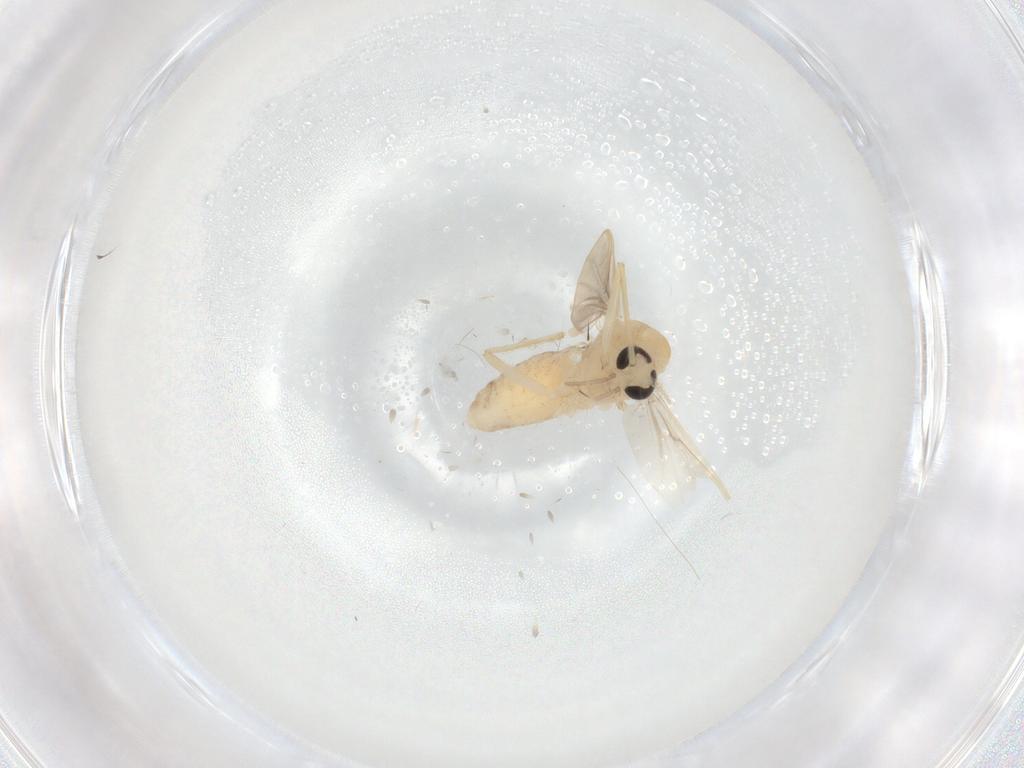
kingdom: Animalia
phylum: Arthropoda
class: Insecta
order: Diptera
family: Chironomidae
